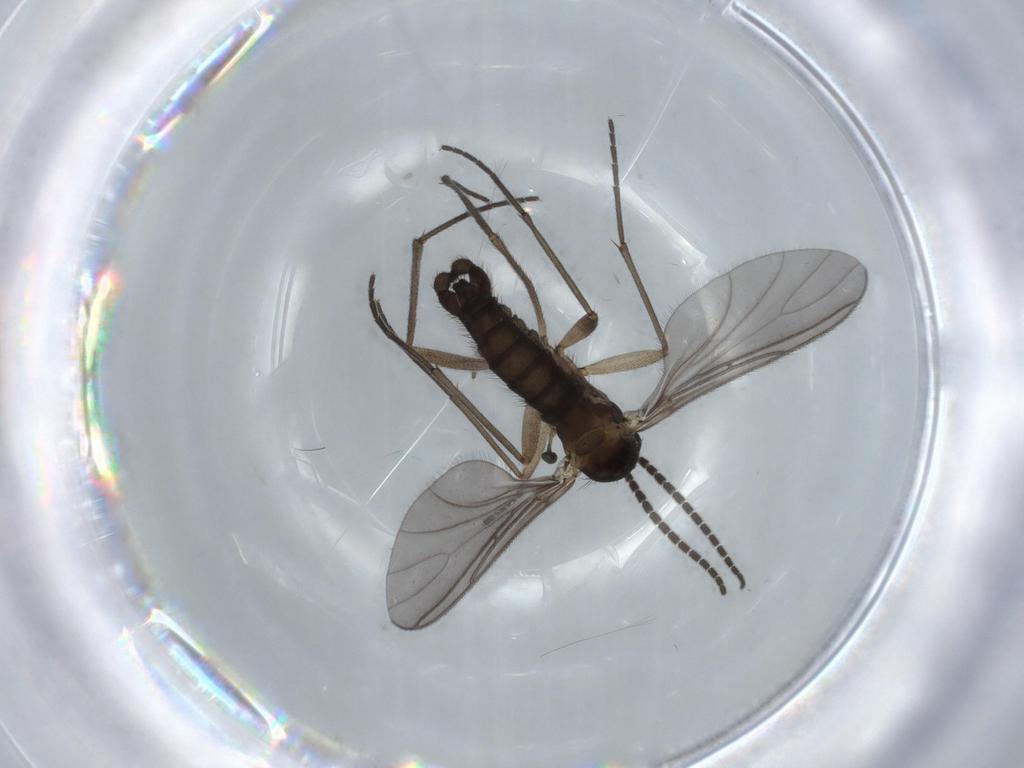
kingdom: Animalia
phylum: Arthropoda
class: Insecta
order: Diptera
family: Sciaridae
